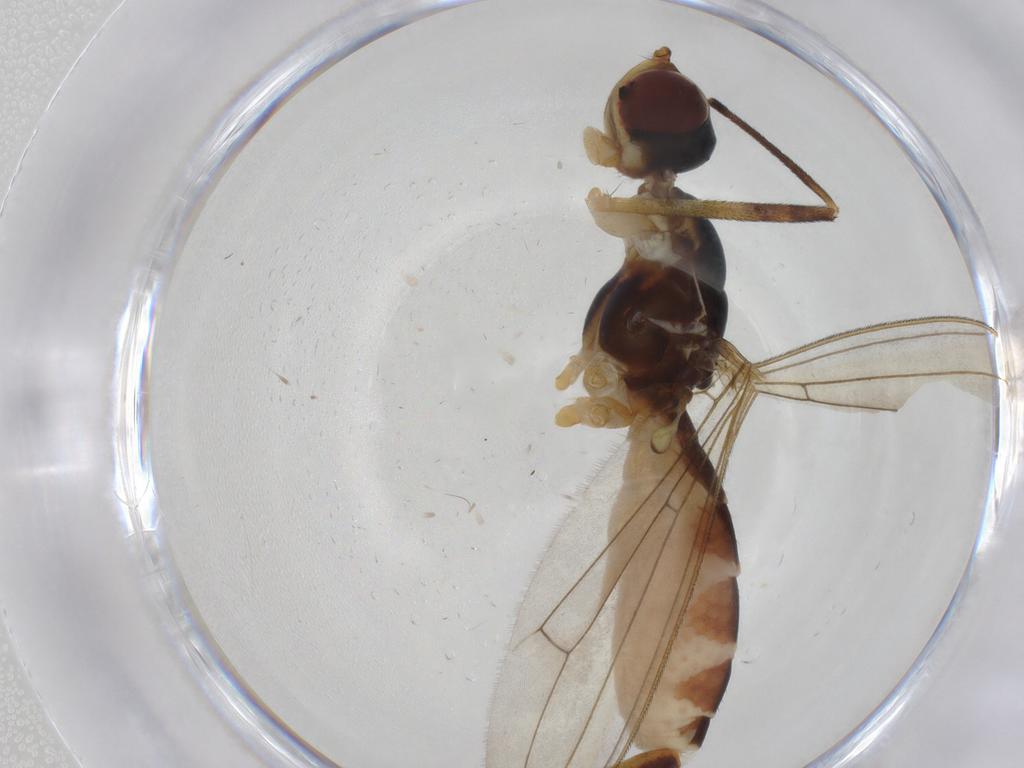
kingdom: Animalia
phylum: Arthropoda
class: Insecta
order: Diptera
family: Micropezidae
